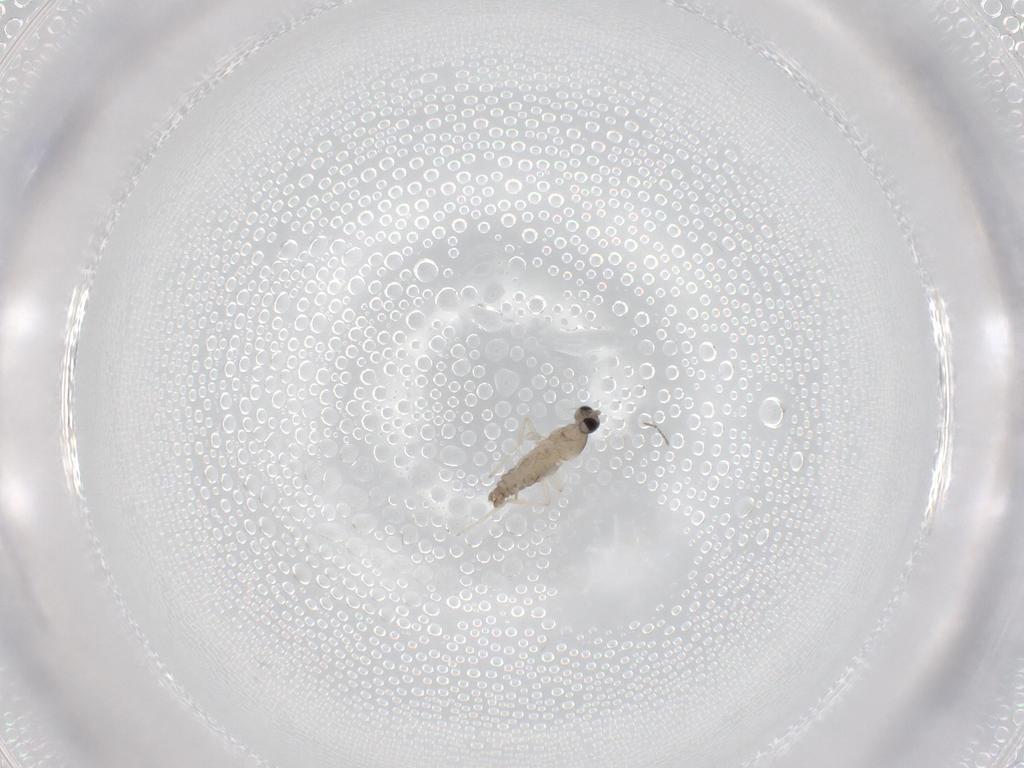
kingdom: Animalia
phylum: Arthropoda
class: Insecta
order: Diptera
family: Cecidomyiidae
